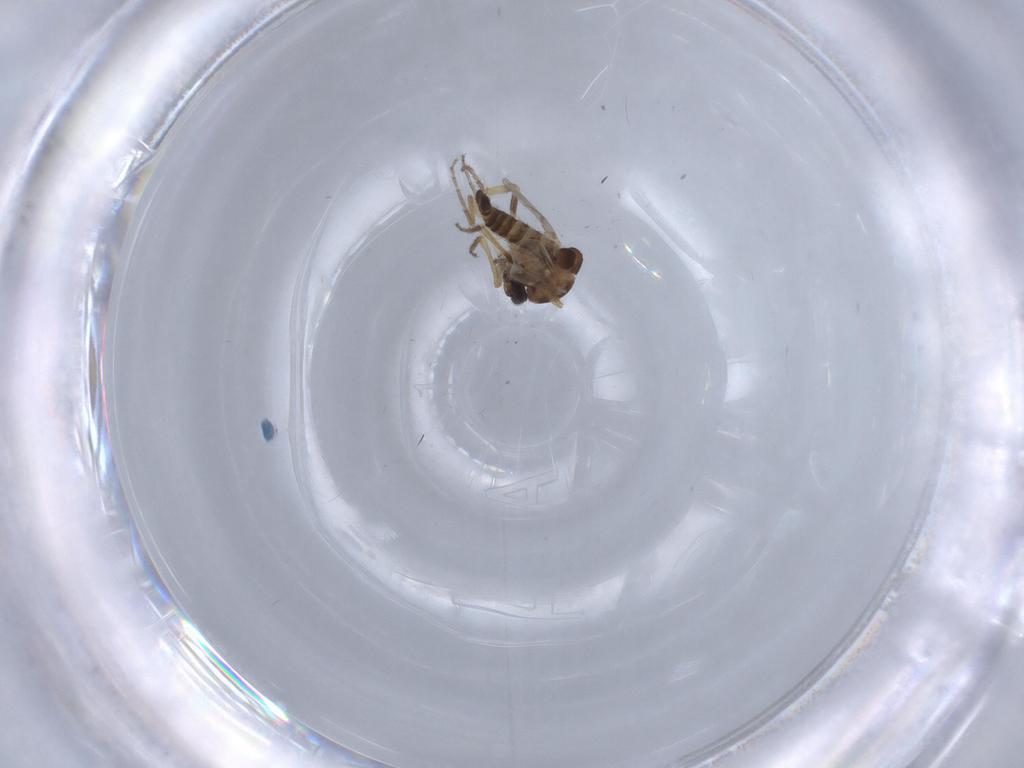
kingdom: Animalia
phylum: Arthropoda
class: Insecta
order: Diptera
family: Ceratopogonidae
